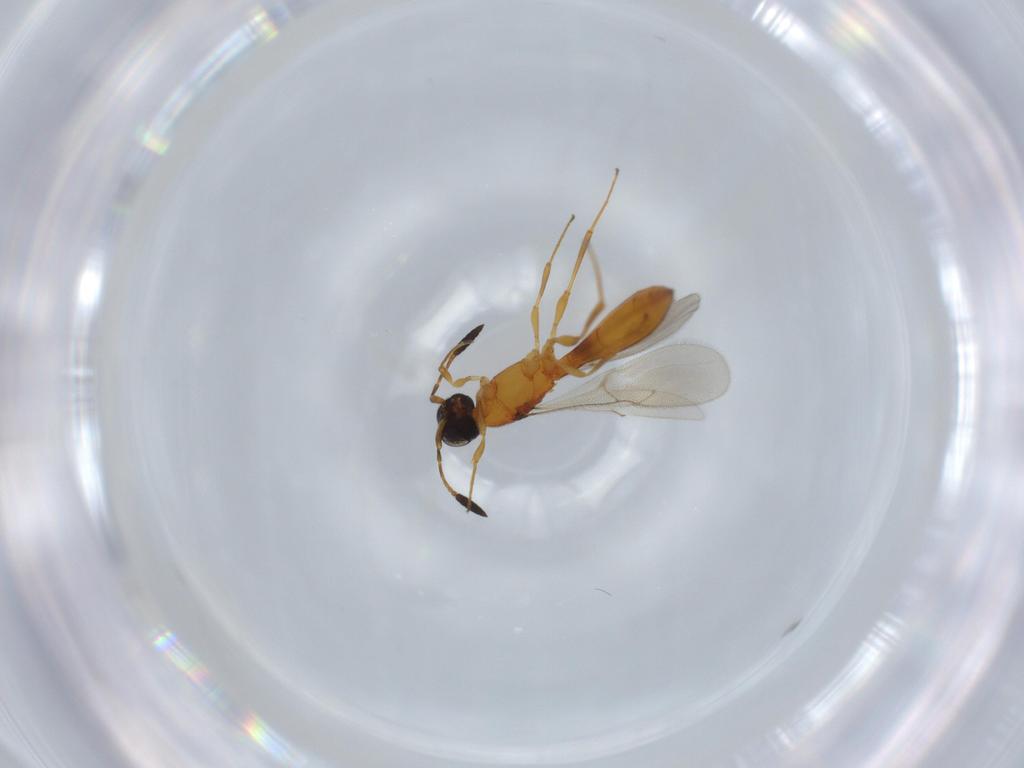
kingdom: Animalia
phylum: Arthropoda
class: Insecta
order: Hymenoptera
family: Scelionidae
